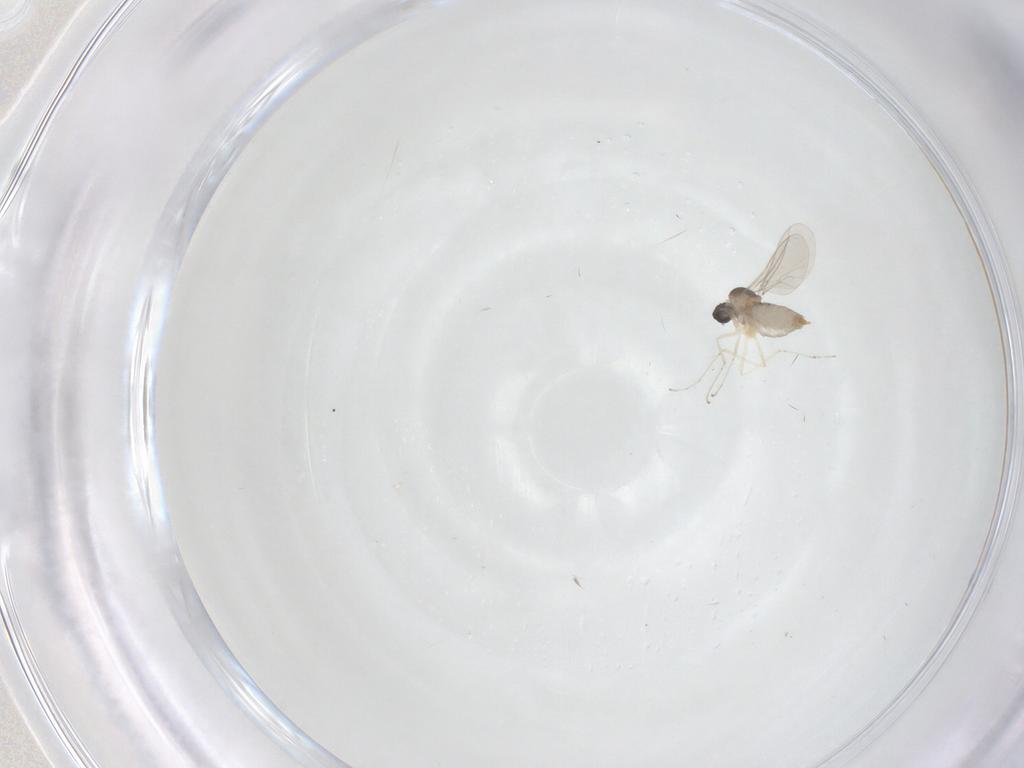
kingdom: Animalia
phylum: Arthropoda
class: Insecta
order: Diptera
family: Cecidomyiidae
